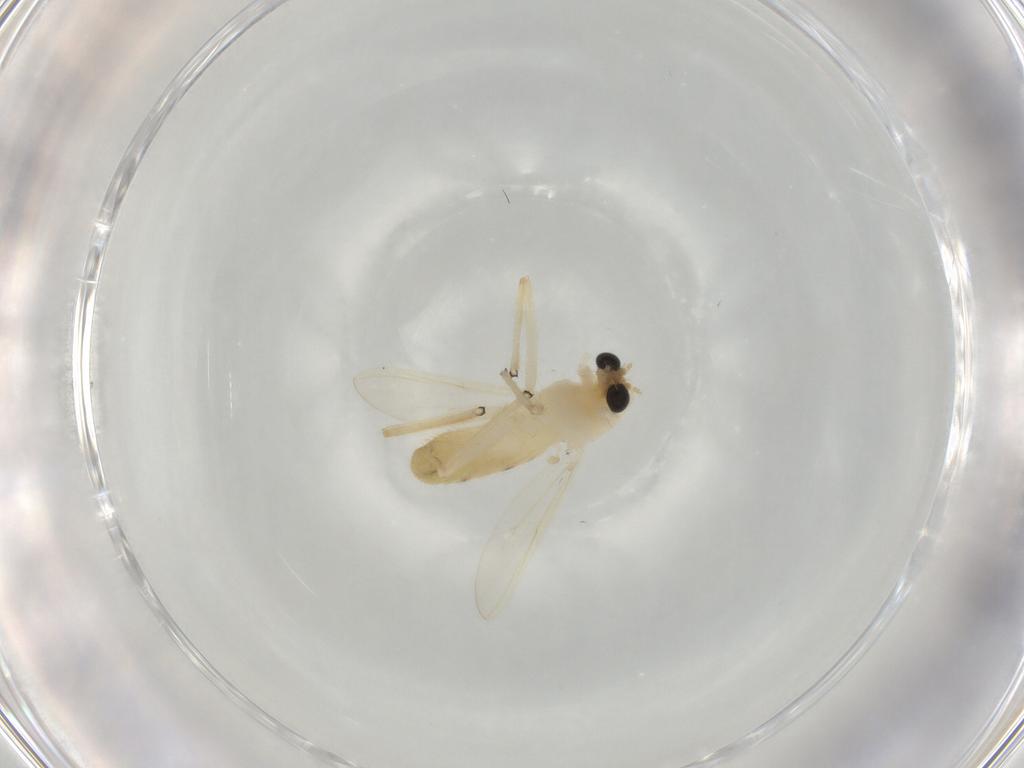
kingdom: Animalia
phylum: Arthropoda
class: Insecta
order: Diptera
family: Chironomidae
